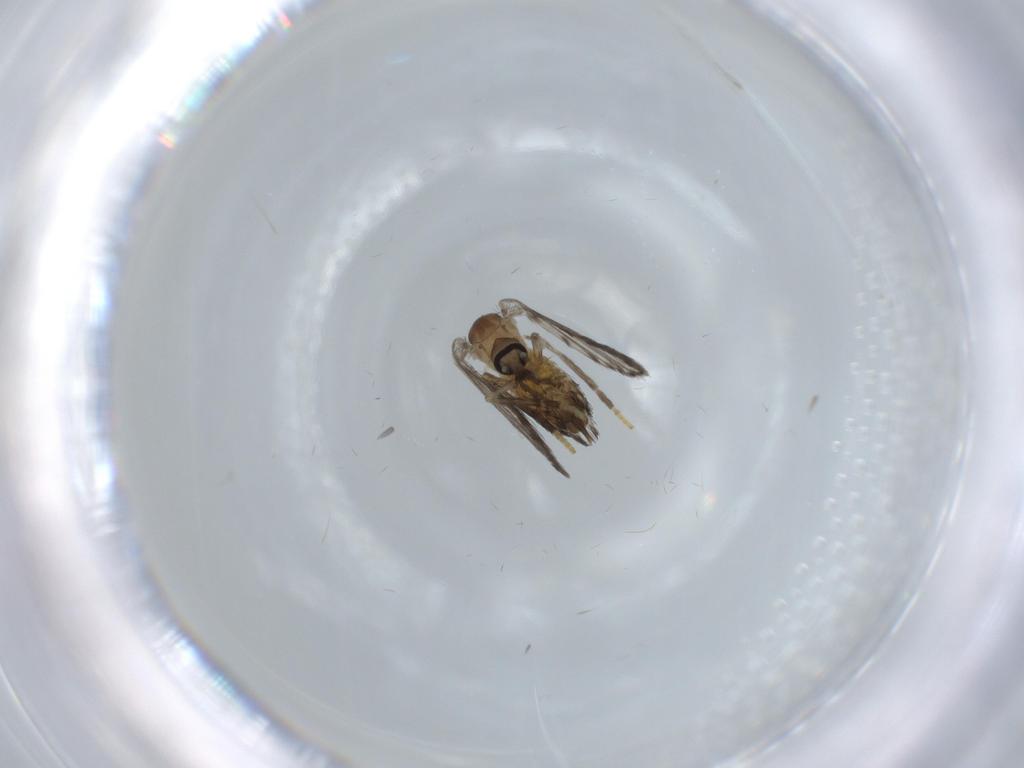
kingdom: Animalia
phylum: Arthropoda
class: Insecta
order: Diptera
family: Psychodidae
